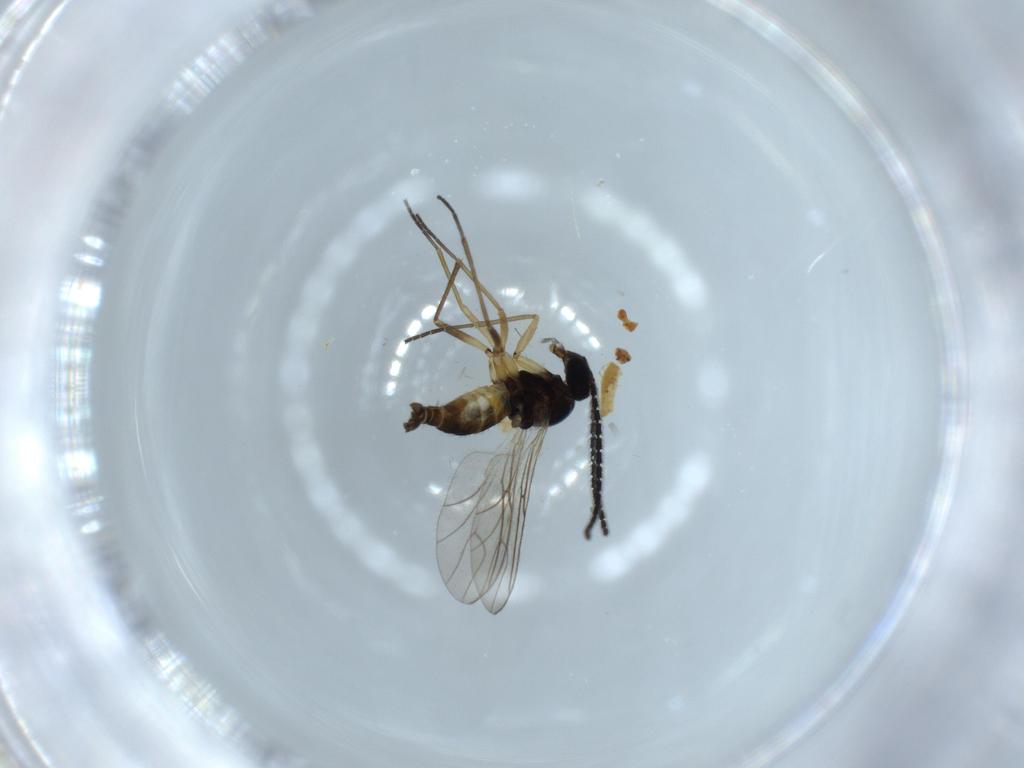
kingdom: Animalia
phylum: Arthropoda
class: Insecta
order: Diptera
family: Sciaridae
